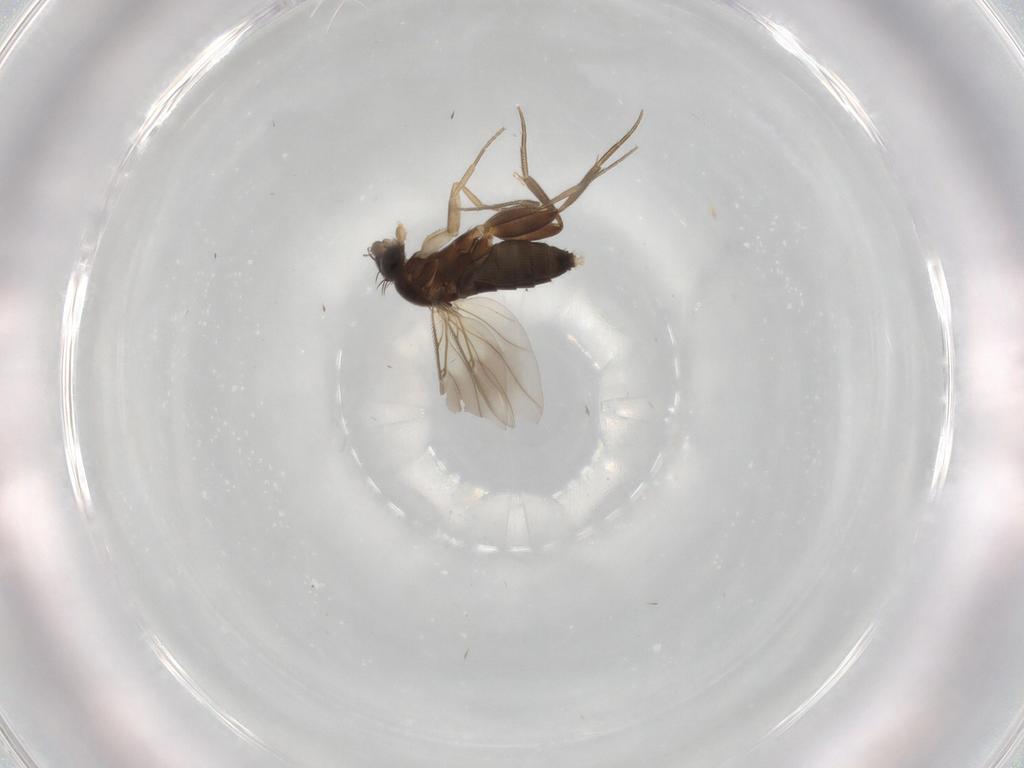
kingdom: Animalia
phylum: Arthropoda
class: Insecta
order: Diptera
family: Phoridae
